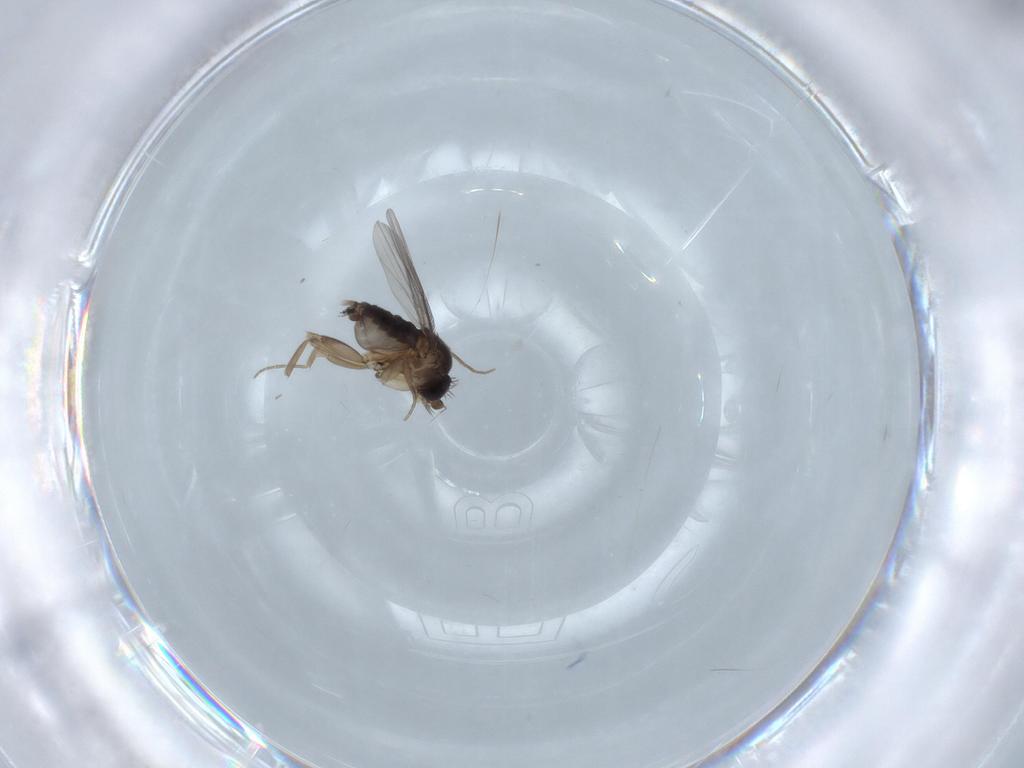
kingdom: Animalia
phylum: Arthropoda
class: Insecta
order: Diptera
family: Phoridae
